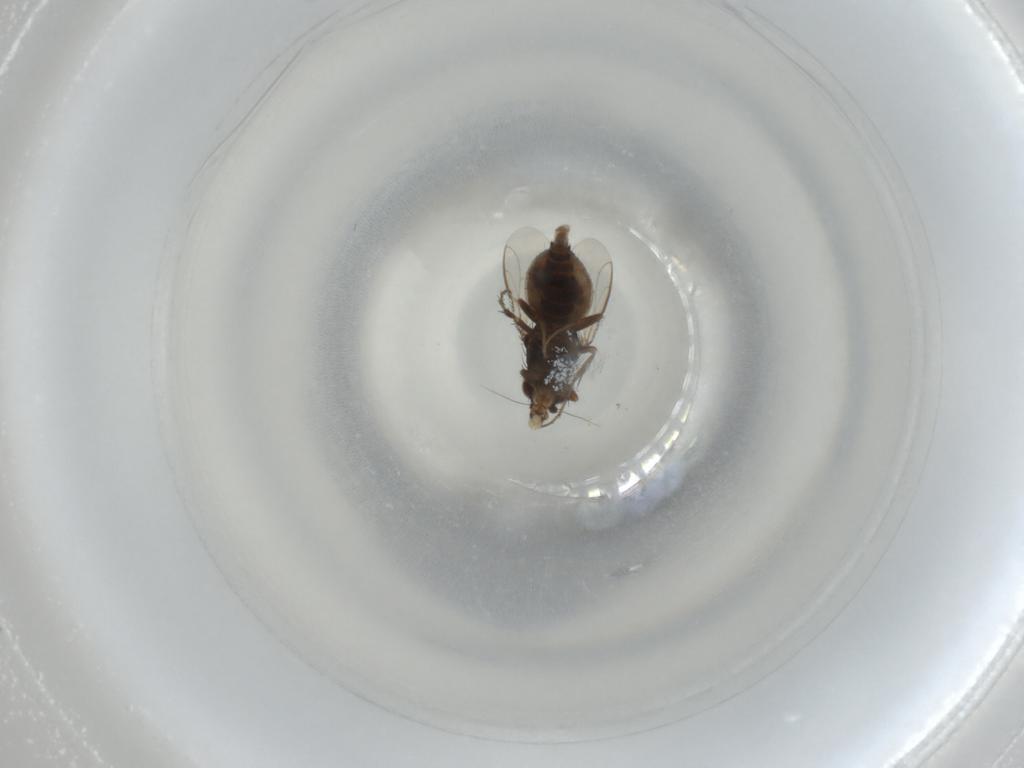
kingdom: Animalia
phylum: Arthropoda
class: Insecta
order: Diptera
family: Sphaeroceridae
